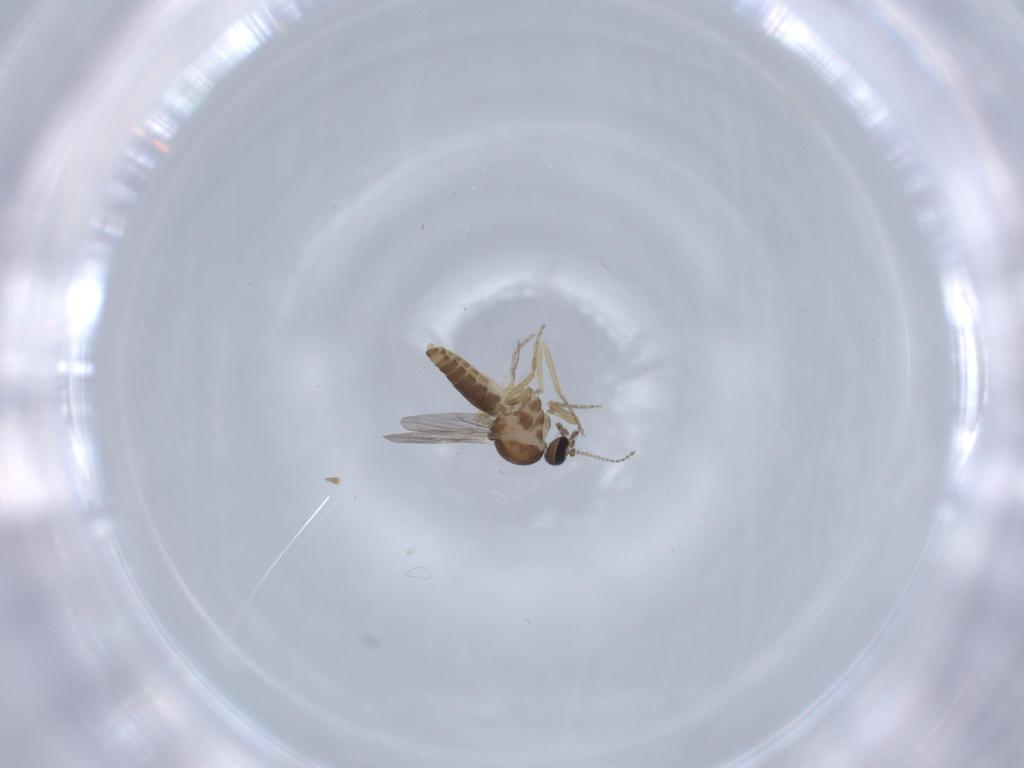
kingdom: Animalia
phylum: Arthropoda
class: Insecta
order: Diptera
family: Ceratopogonidae
